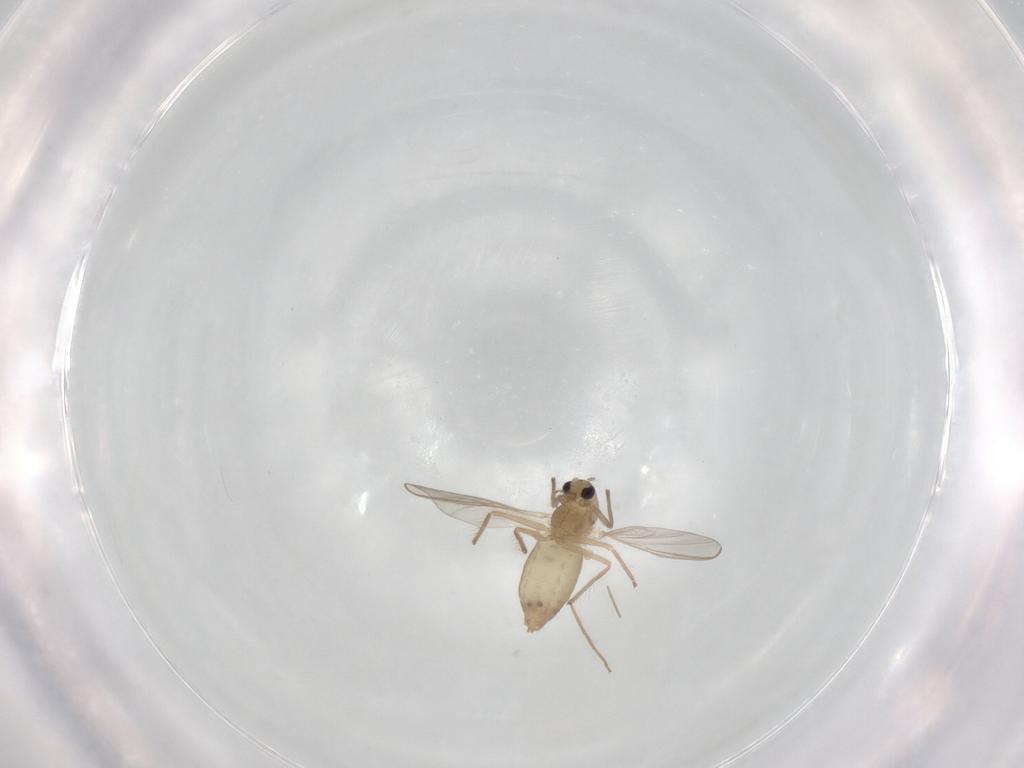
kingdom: Animalia
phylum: Arthropoda
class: Insecta
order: Diptera
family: Chironomidae
